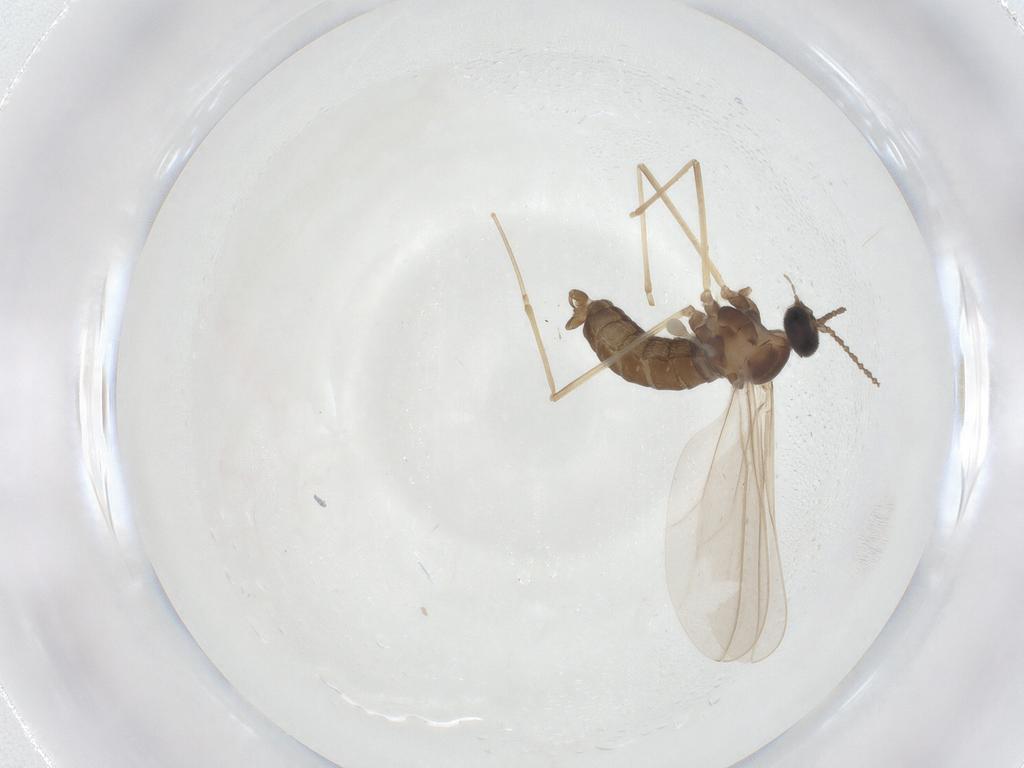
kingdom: Animalia
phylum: Arthropoda
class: Insecta
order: Diptera
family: Cecidomyiidae
